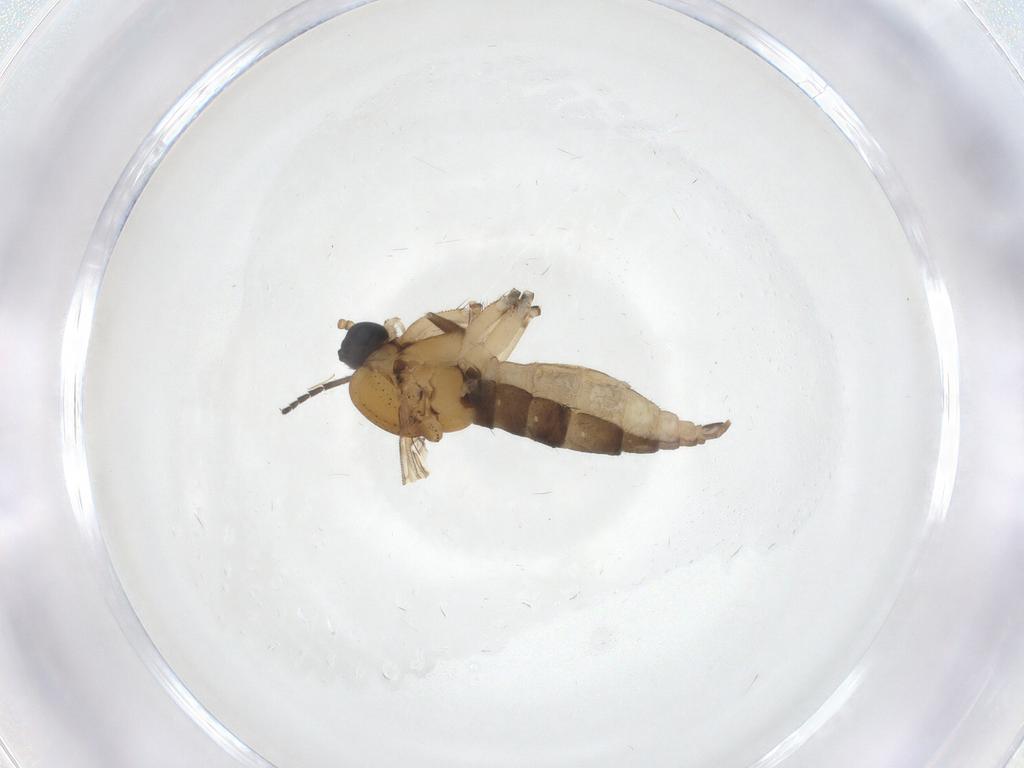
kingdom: Animalia
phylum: Arthropoda
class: Insecta
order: Diptera
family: Sciaridae
